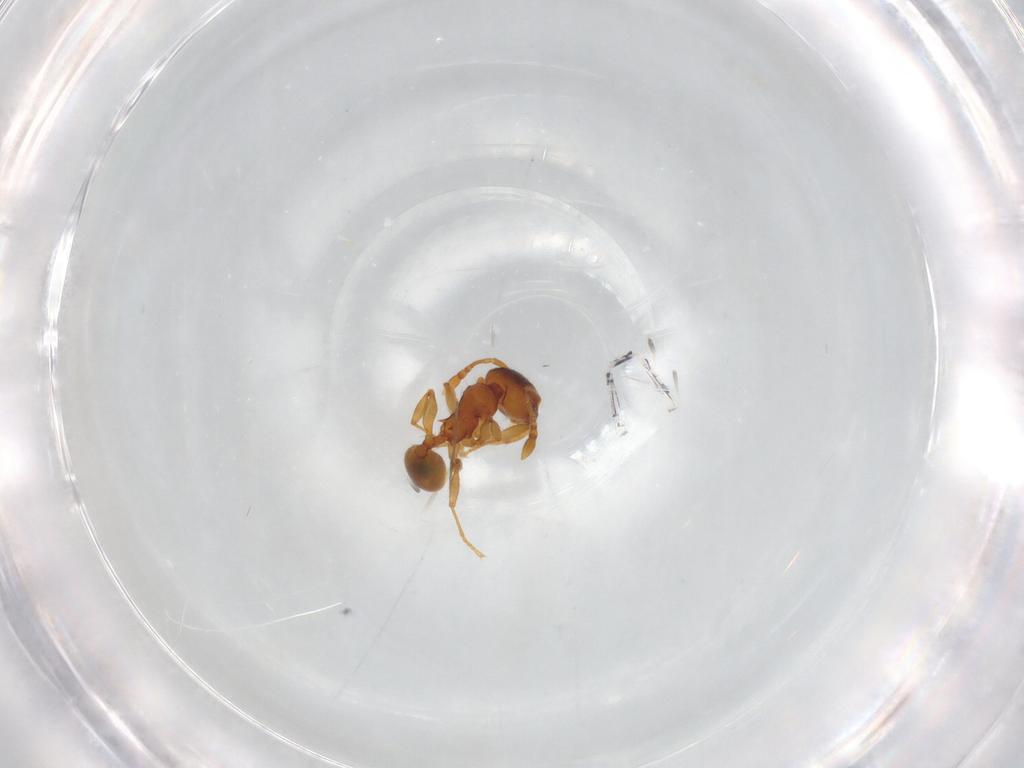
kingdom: Animalia
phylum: Arthropoda
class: Insecta
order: Hymenoptera
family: Formicidae
